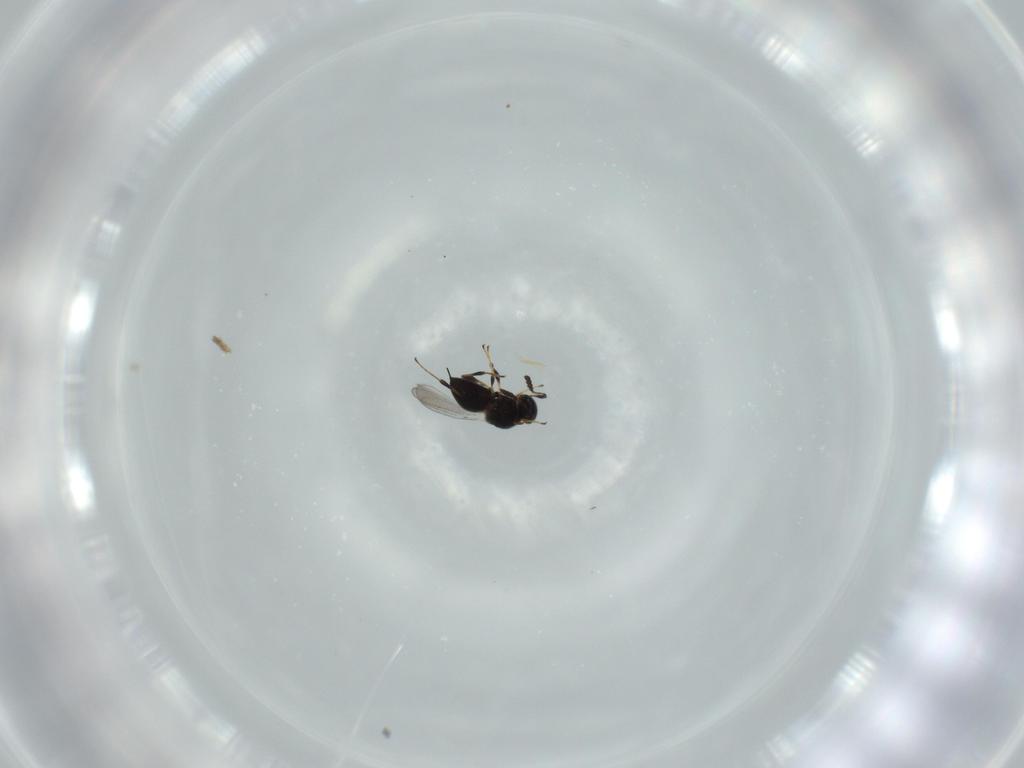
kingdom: Animalia
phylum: Arthropoda
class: Insecta
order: Hymenoptera
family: Platygastridae
